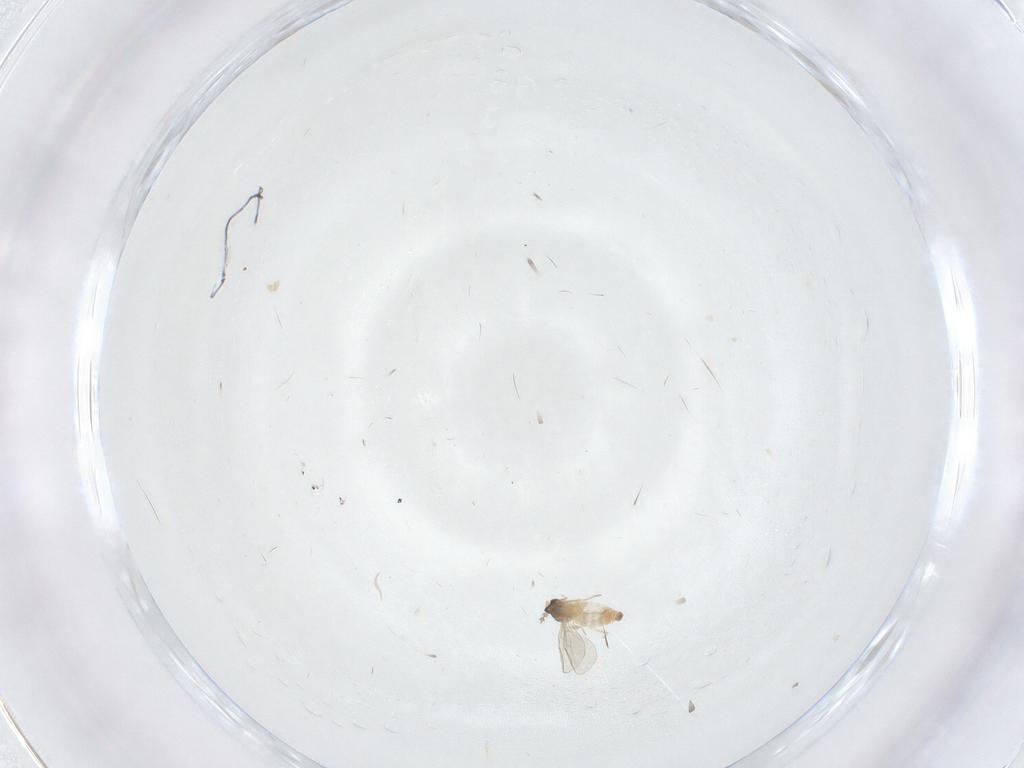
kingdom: Animalia
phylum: Arthropoda
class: Insecta
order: Diptera
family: Cecidomyiidae
